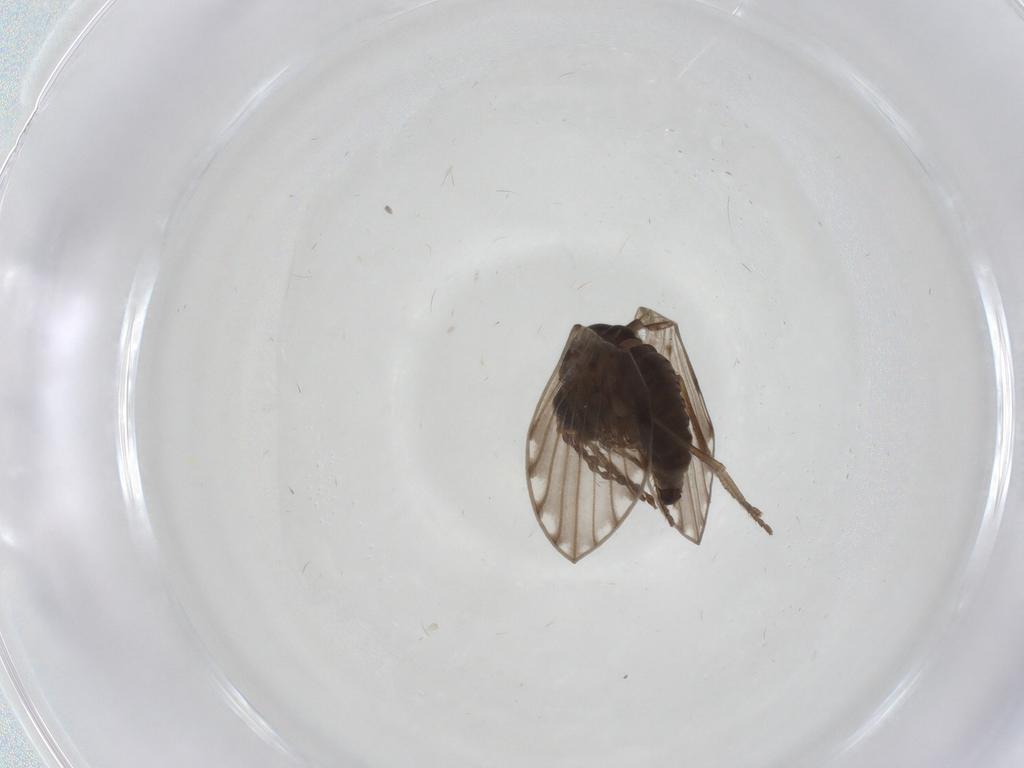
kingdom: Animalia
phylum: Arthropoda
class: Insecta
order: Diptera
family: Psychodidae
